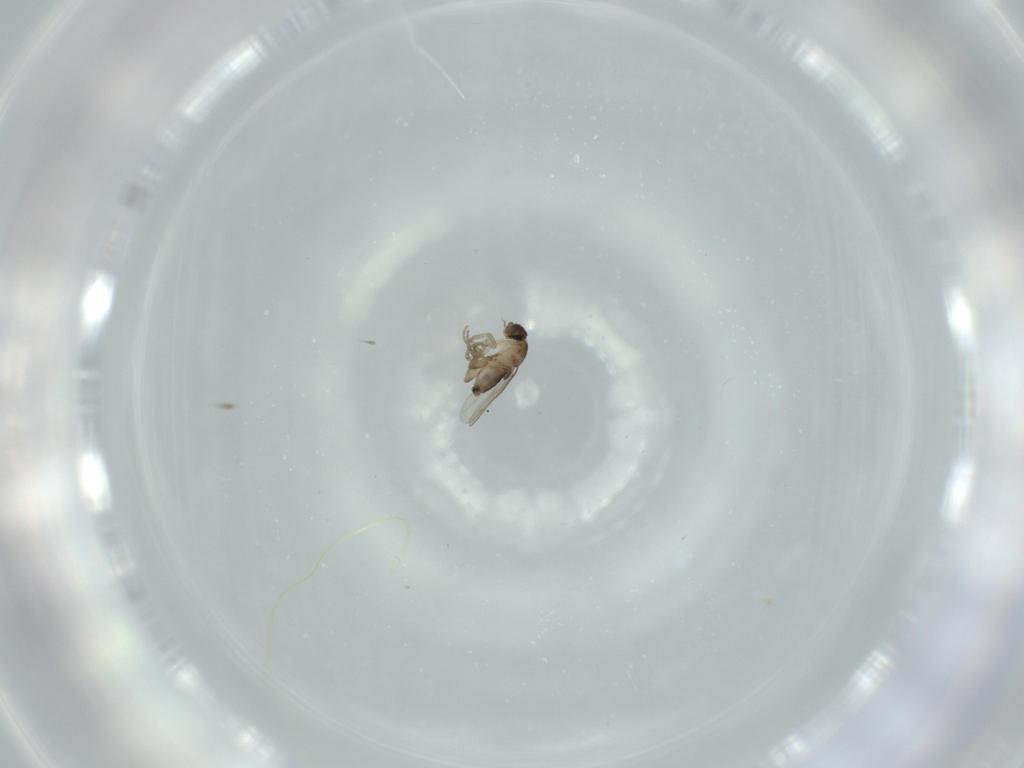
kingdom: Animalia
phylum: Arthropoda
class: Insecta
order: Diptera
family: Cecidomyiidae
